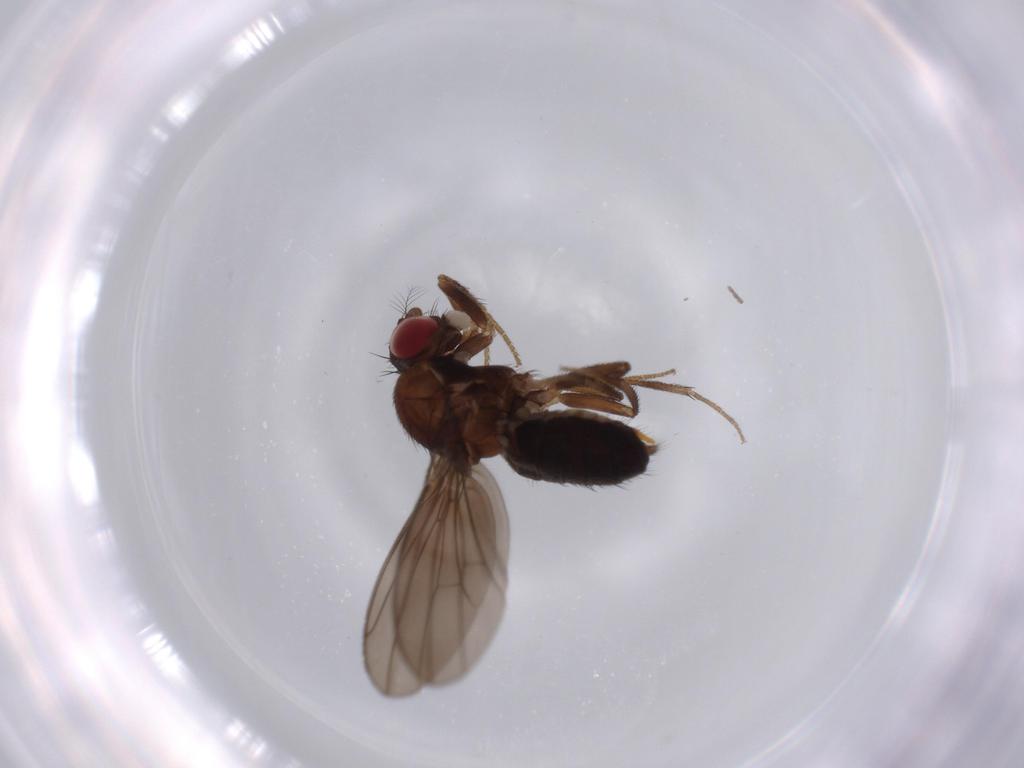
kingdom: Animalia
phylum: Arthropoda
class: Insecta
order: Diptera
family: Drosophilidae
